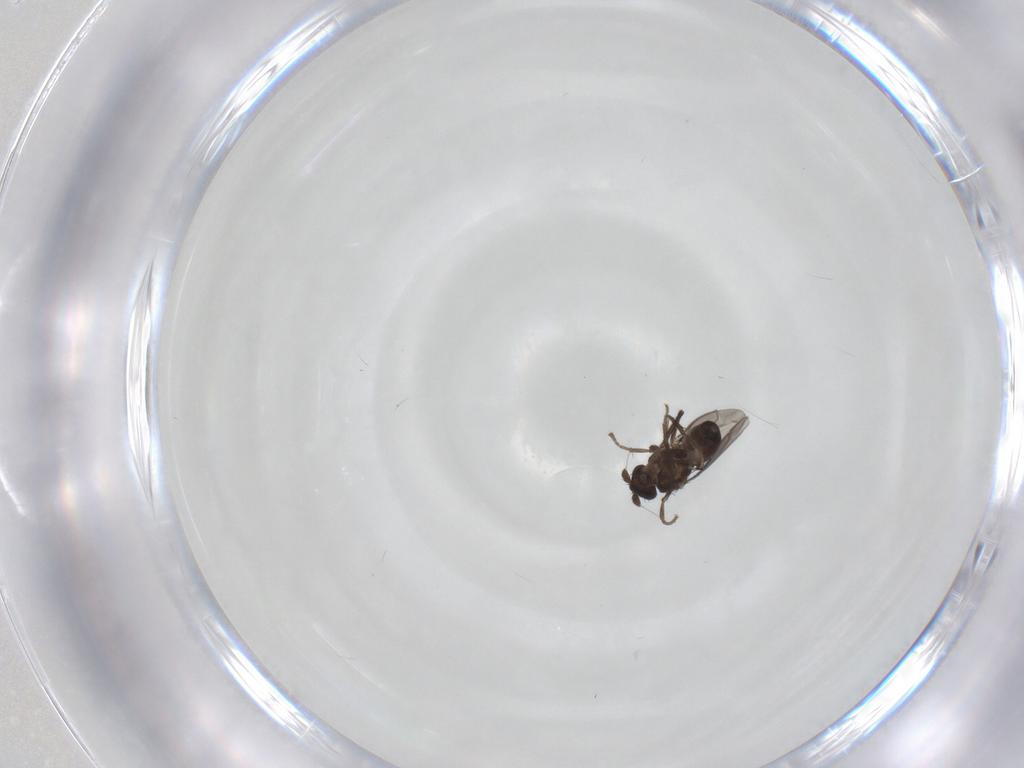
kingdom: Animalia
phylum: Arthropoda
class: Insecta
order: Diptera
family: Sphaeroceridae
